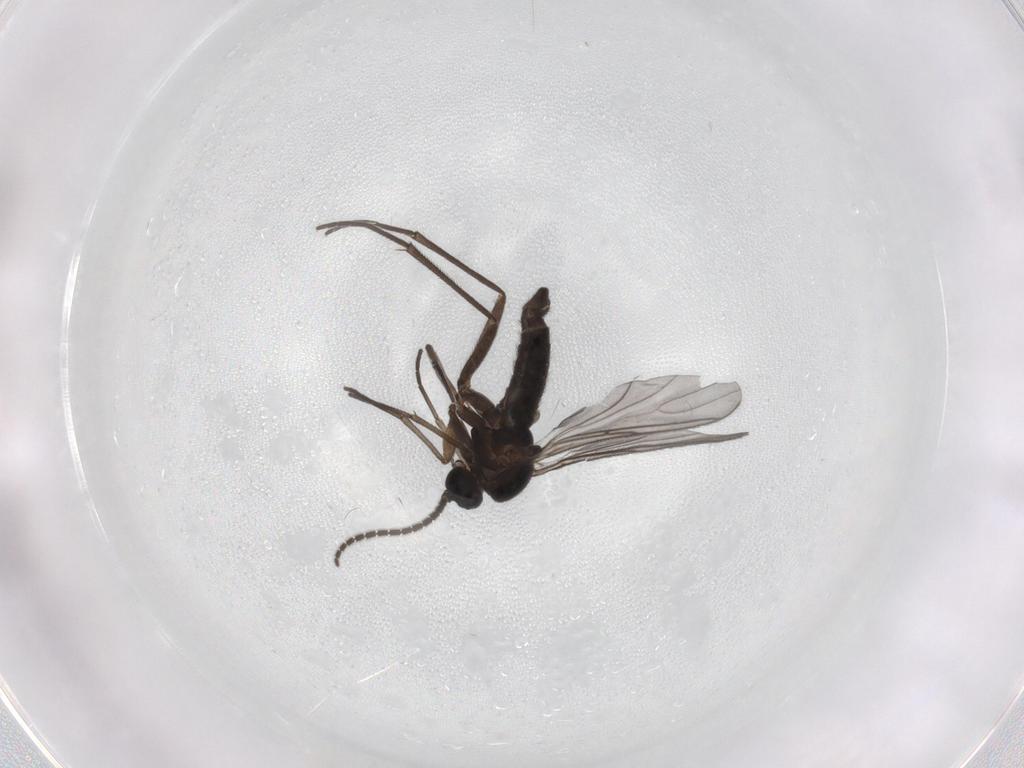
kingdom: Animalia
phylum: Arthropoda
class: Insecta
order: Diptera
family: Sciaridae
